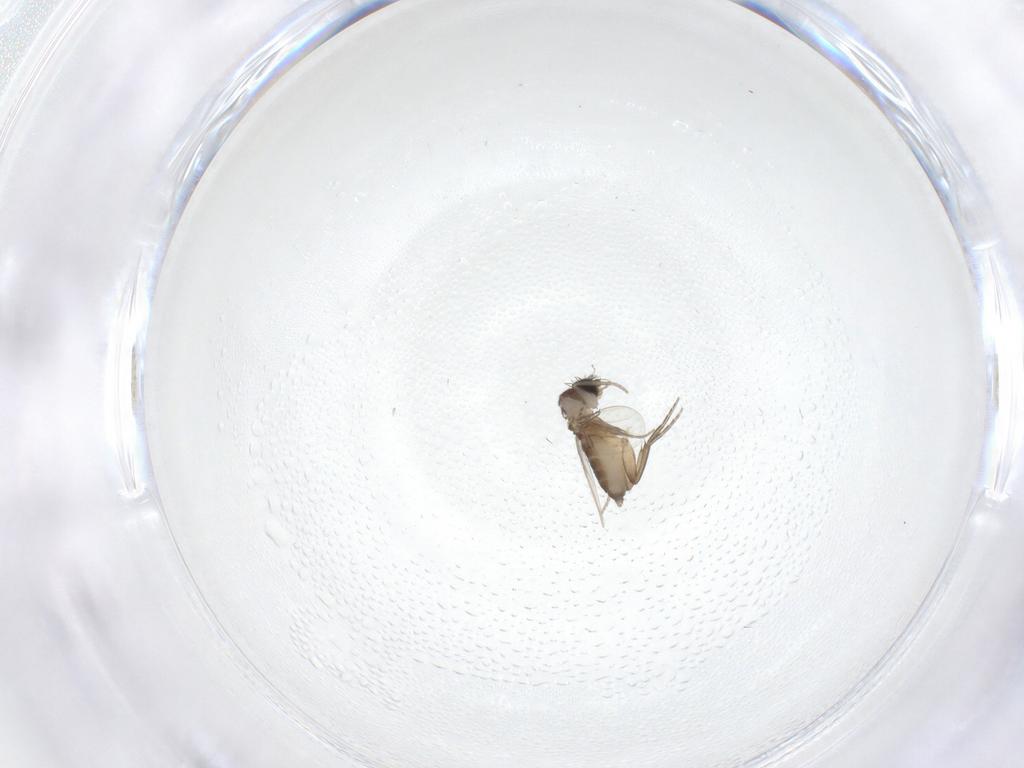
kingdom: Animalia
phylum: Arthropoda
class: Insecta
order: Diptera
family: Phoridae
